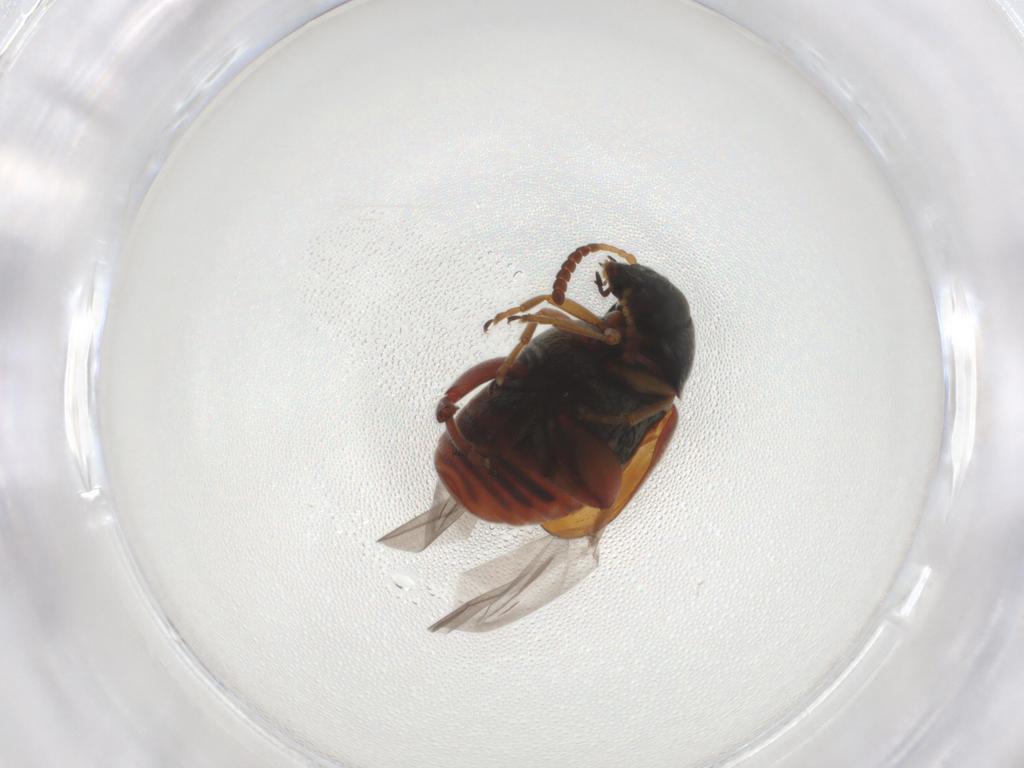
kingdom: Animalia
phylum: Arthropoda
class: Insecta
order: Coleoptera
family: Chrysomelidae
